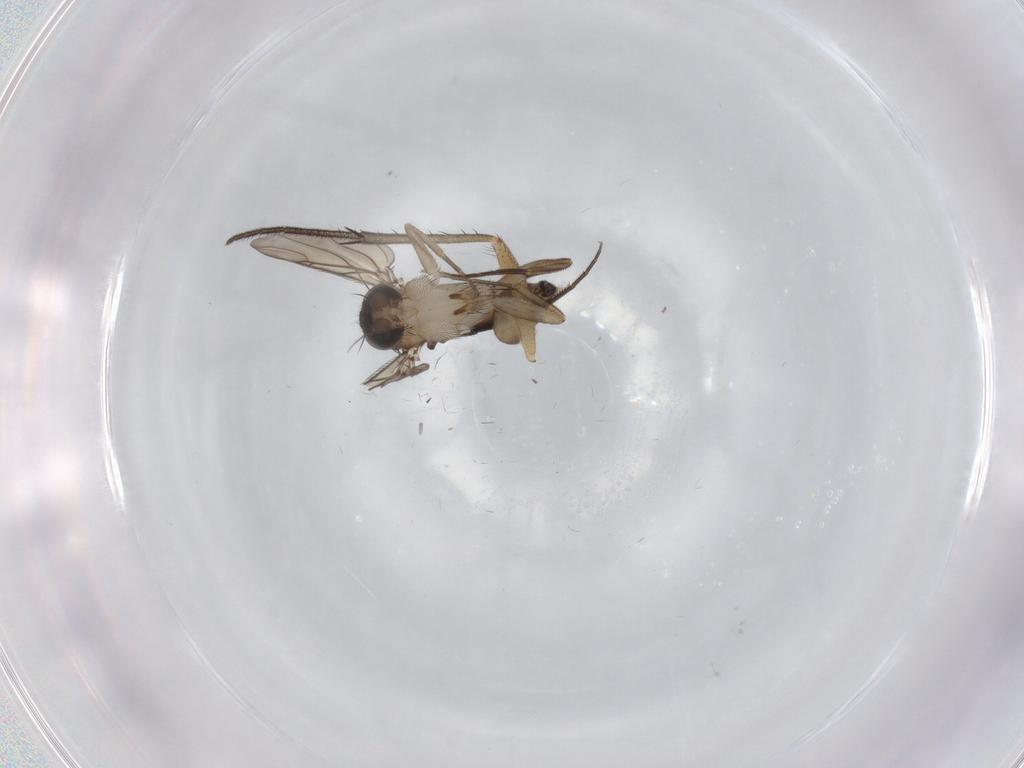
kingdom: Animalia
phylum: Arthropoda
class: Insecta
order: Diptera
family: Phoridae
